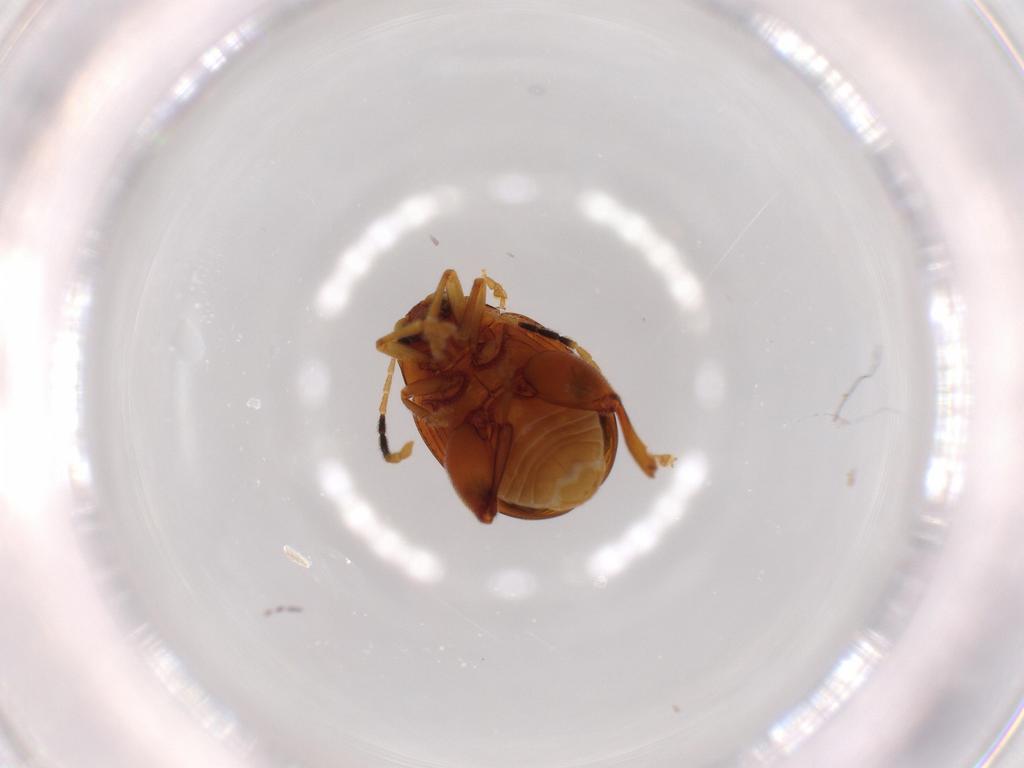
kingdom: Animalia
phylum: Arthropoda
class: Insecta
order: Coleoptera
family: Chrysomelidae
